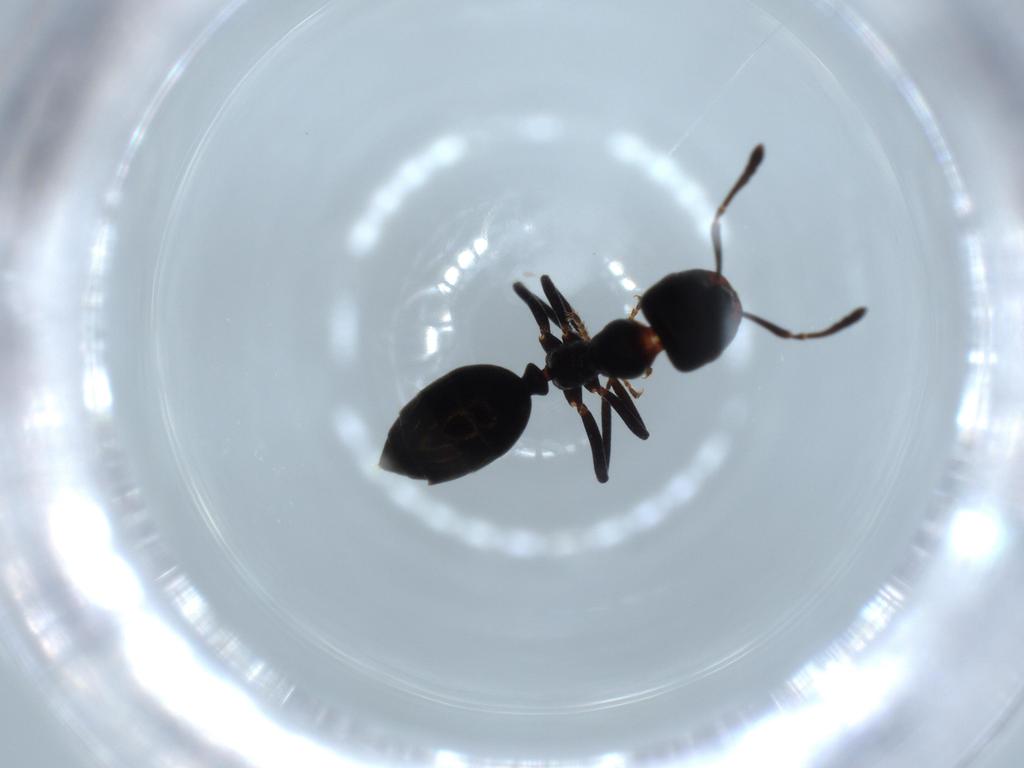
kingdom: Animalia
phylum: Arthropoda
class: Insecta
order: Hymenoptera
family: Formicidae
